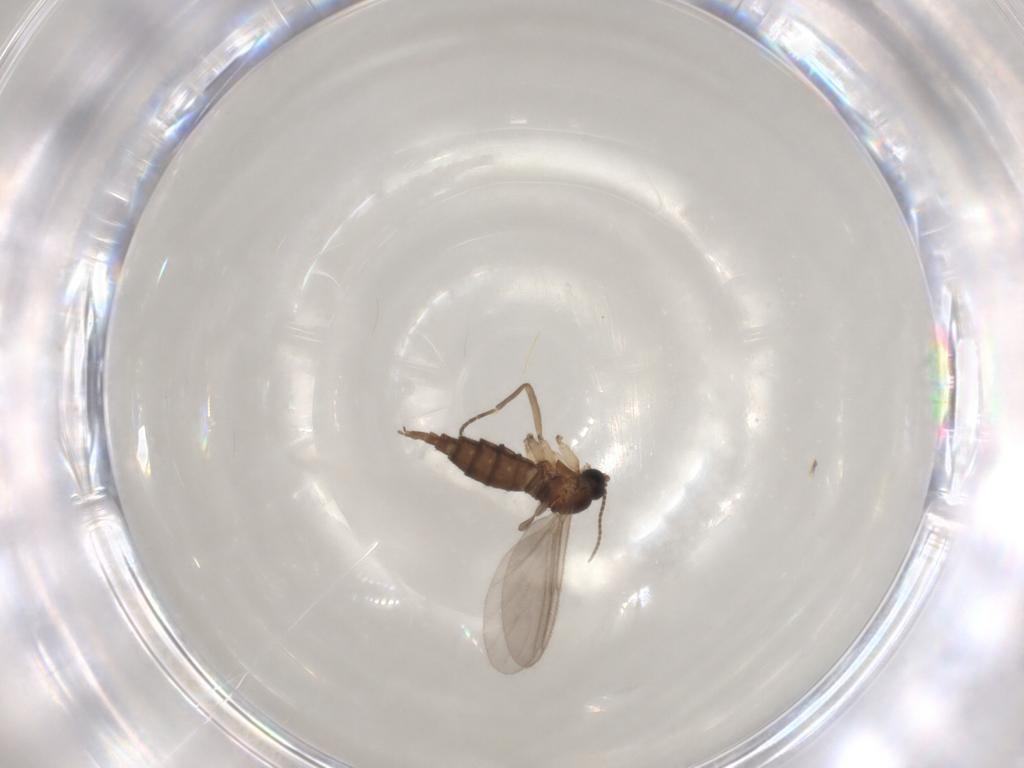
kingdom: Animalia
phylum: Arthropoda
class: Insecta
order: Diptera
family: Sciaridae
